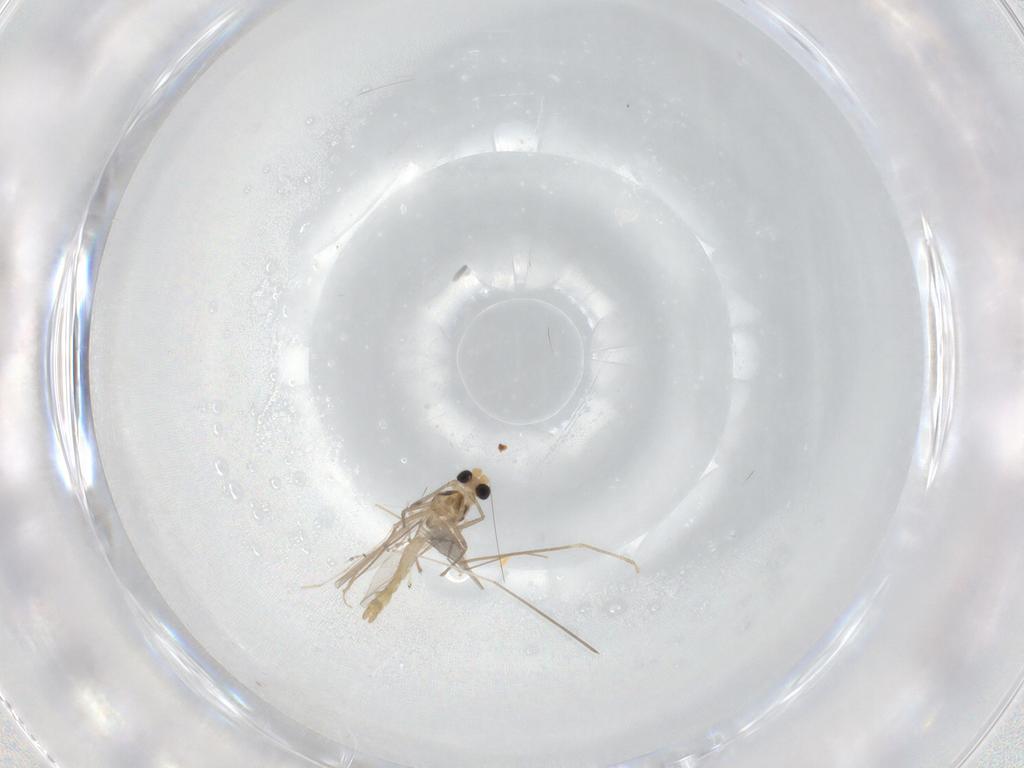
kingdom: Animalia
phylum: Arthropoda
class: Insecta
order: Diptera
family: Chironomidae
